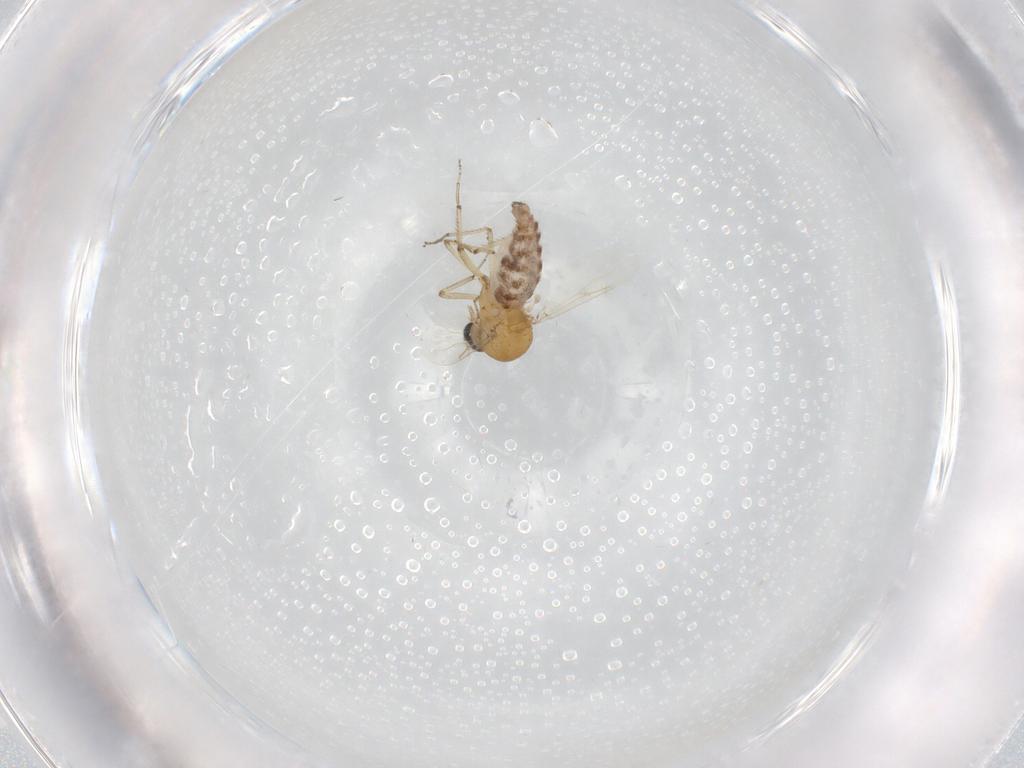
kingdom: Animalia
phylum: Arthropoda
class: Insecta
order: Diptera
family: Ceratopogonidae
